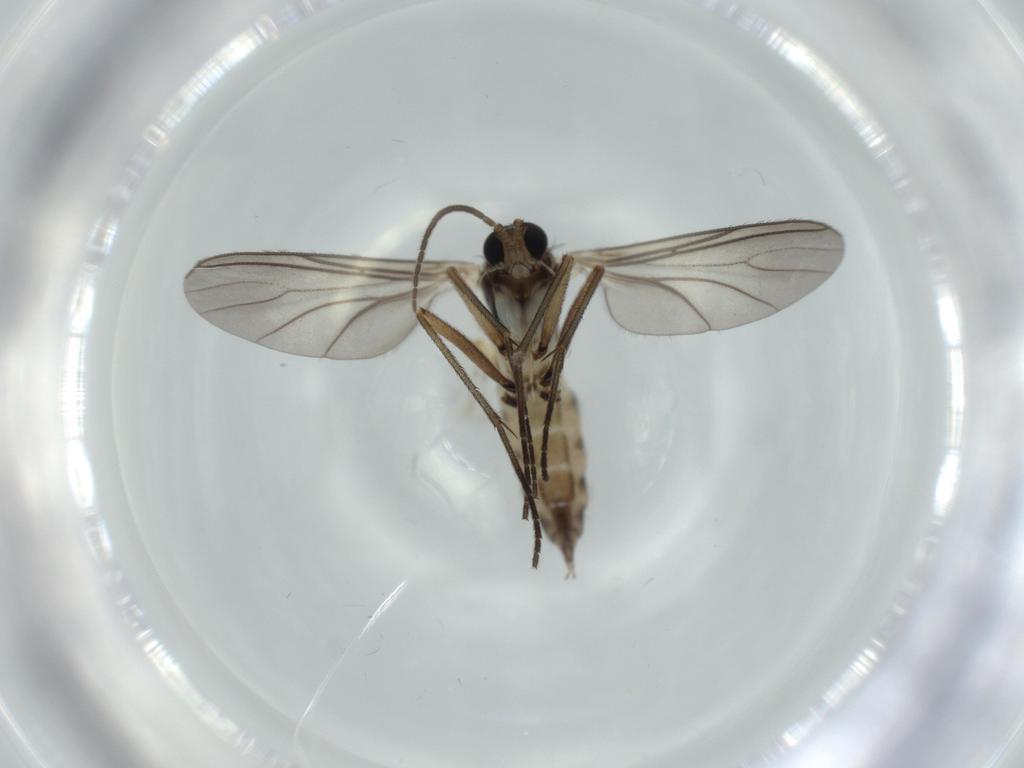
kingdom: Animalia
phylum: Arthropoda
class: Insecta
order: Diptera
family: Sciaridae
